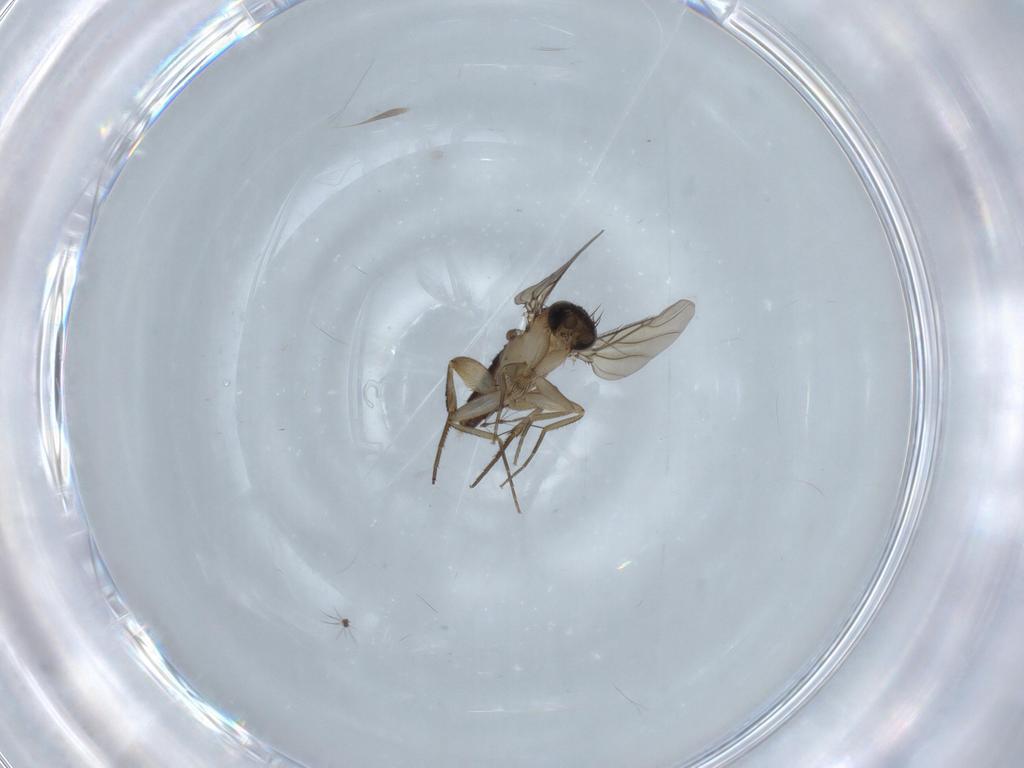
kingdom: Animalia
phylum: Arthropoda
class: Insecta
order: Diptera
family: Phoridae
